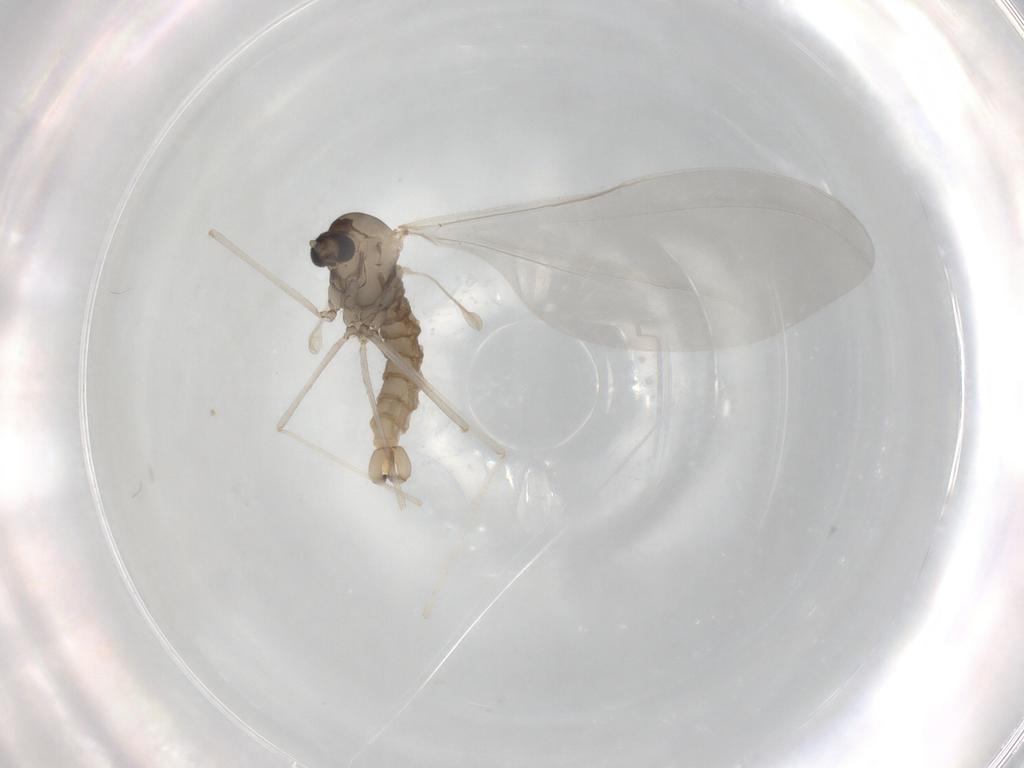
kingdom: Animalia
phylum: Arthropoda
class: Insecta
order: Diptera
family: Cecidomyiidae
